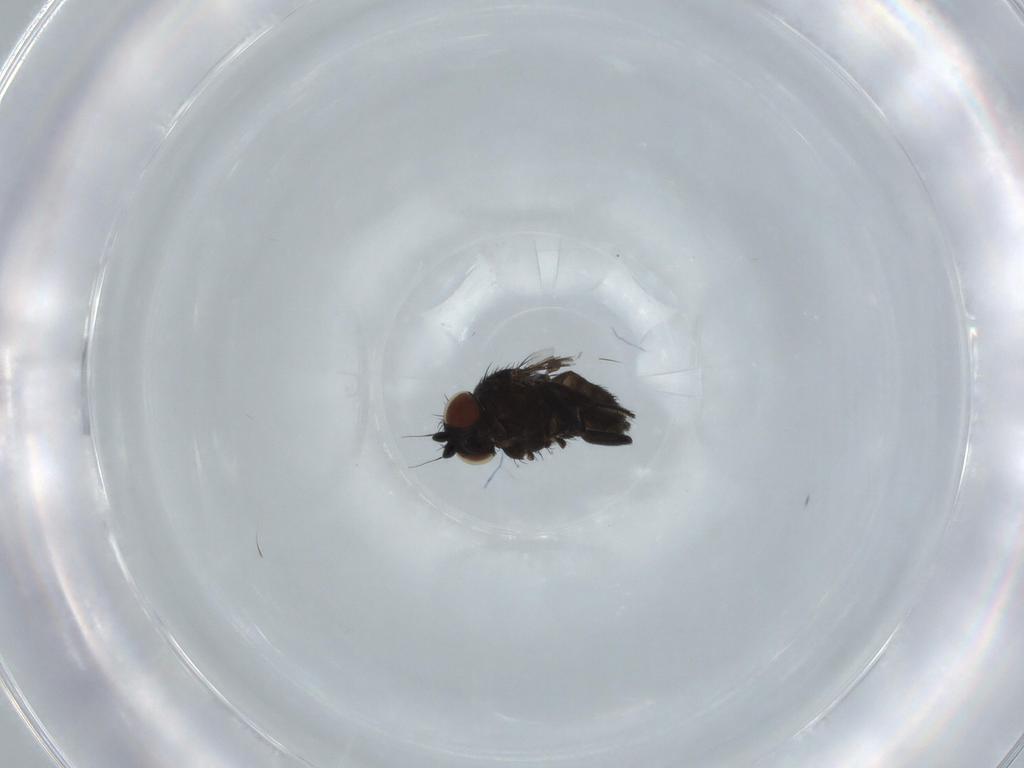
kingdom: Animalia
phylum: Arthropoda
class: Insecta
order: Diptera
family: Milichiidae
